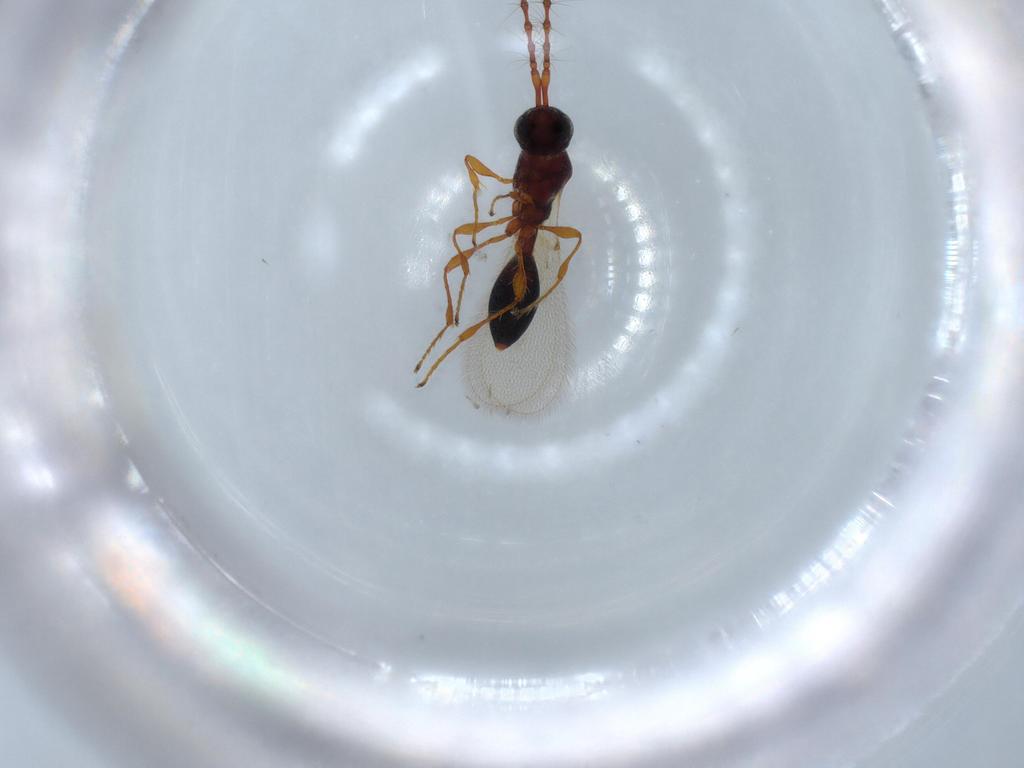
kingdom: Animalia
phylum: Arthropoda
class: Insecta
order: Hymenoptera
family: Diapriidae
